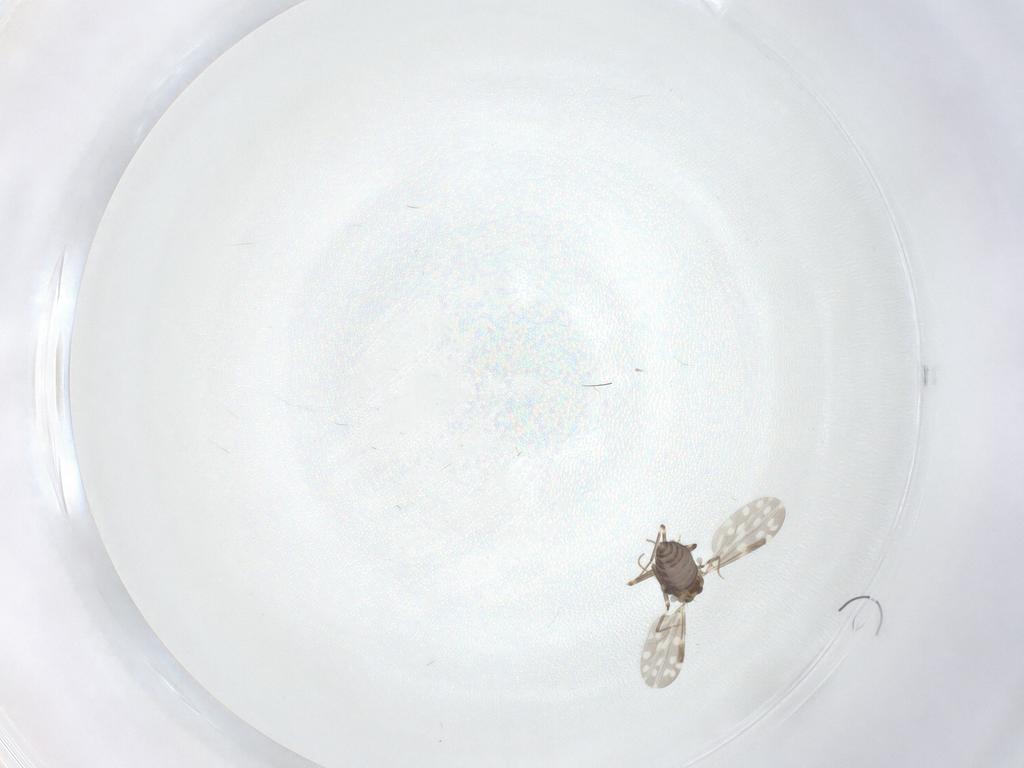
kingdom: Animalia
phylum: Arthropoda
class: Insecta
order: Diptera
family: Ceratopogonidae
